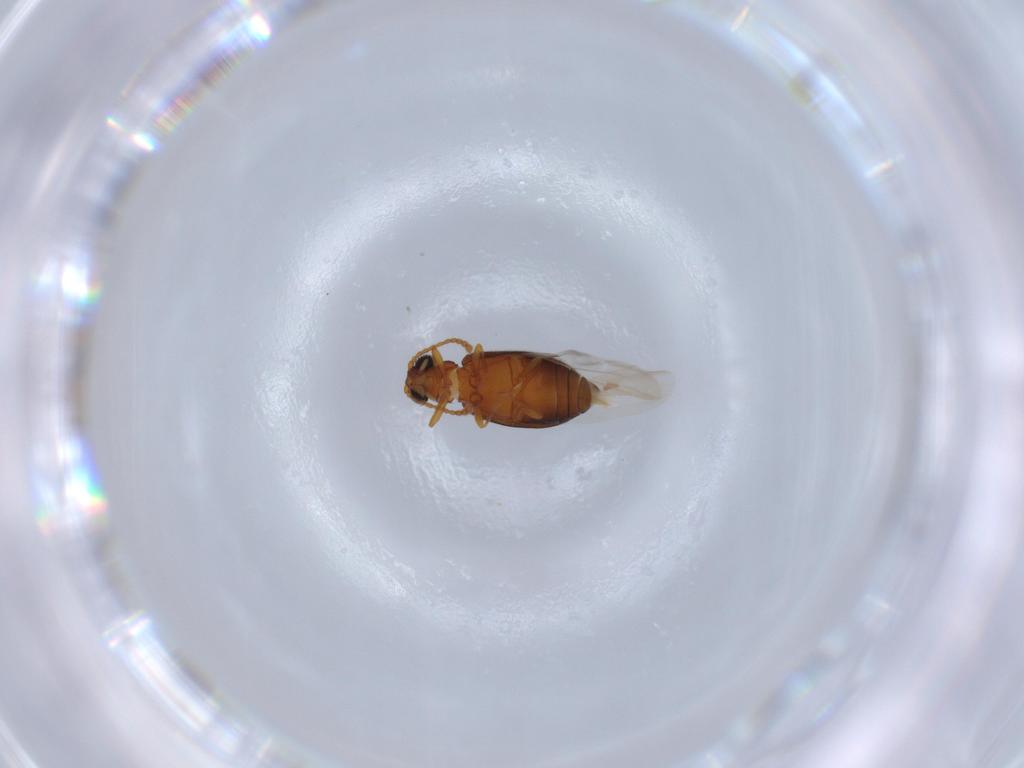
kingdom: Animalia
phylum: Arthropoda
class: Insecta
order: Coleoptera
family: Aderidae
